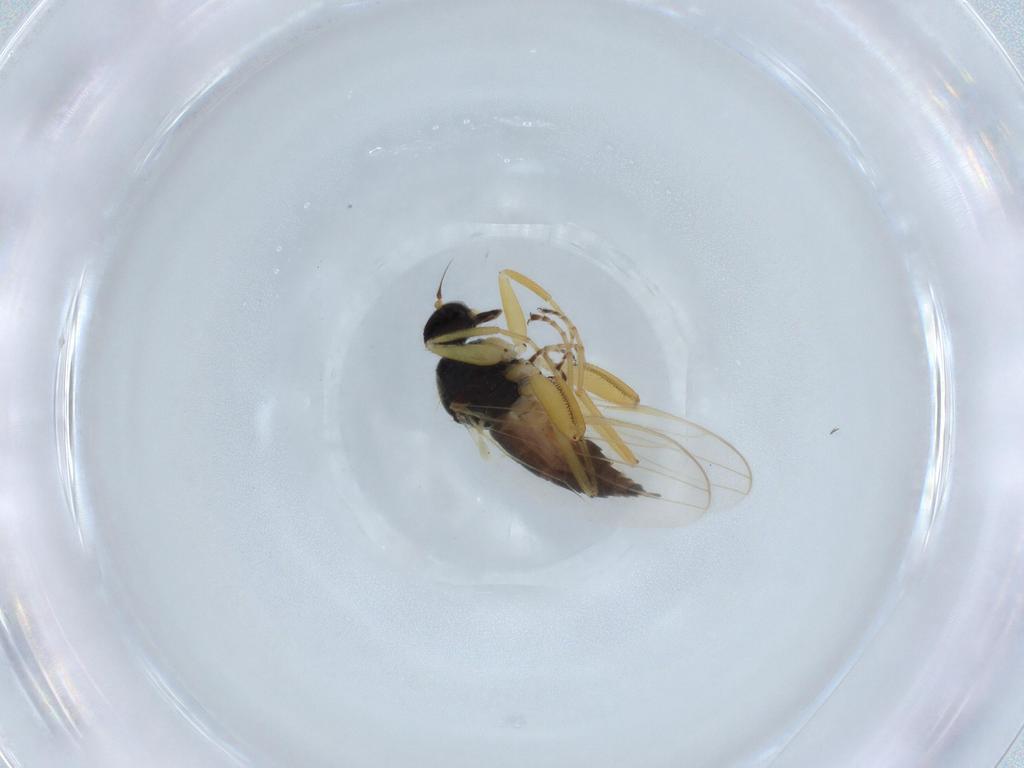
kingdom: Animalia
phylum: Arthropoda
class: Insecta
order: Diptera
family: Hybotidae
